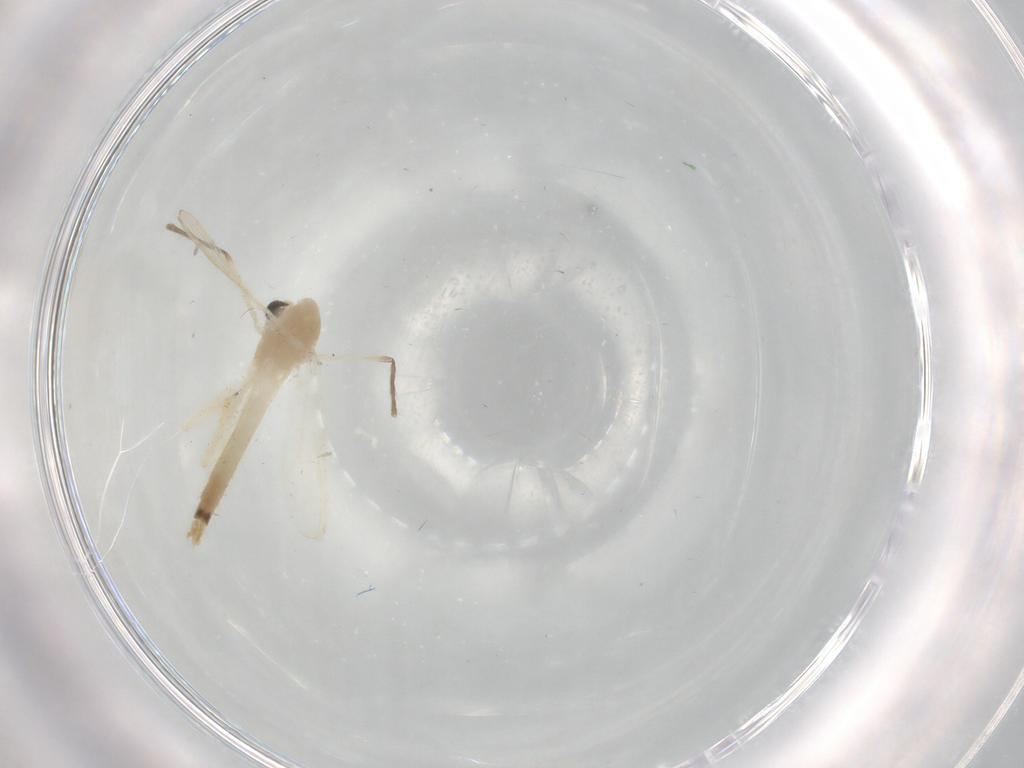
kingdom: Animalia
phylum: Arthropoda
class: Insecta
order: Diptera
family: Chironomidae
